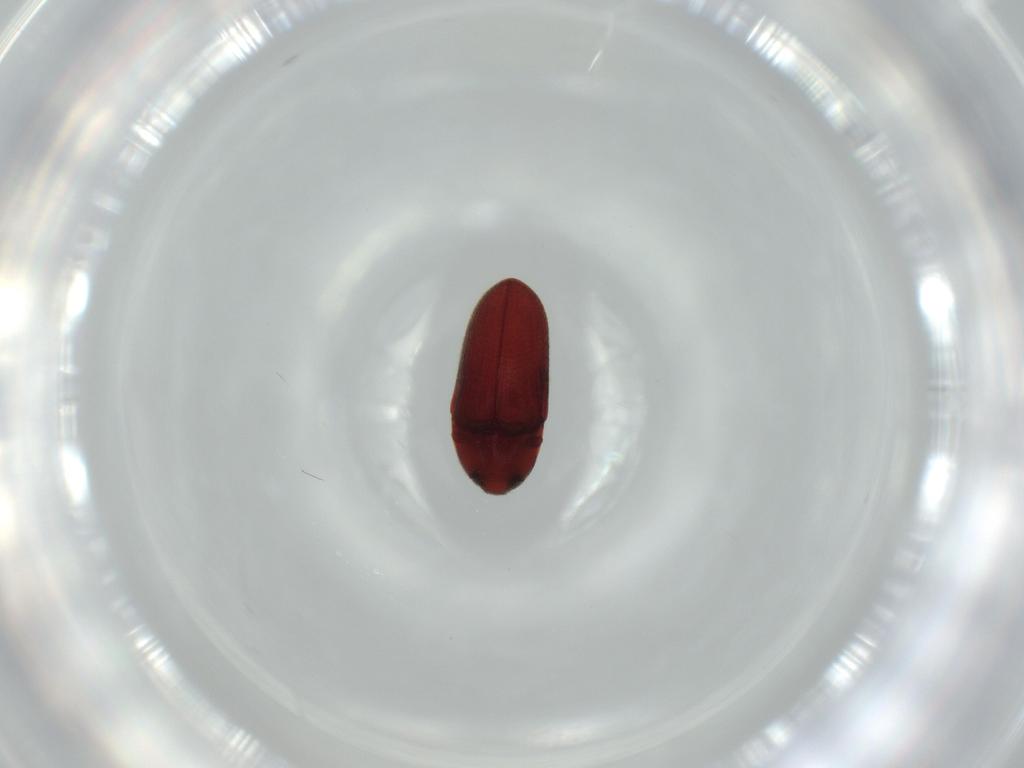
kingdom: Animalia
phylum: Arthropoda
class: Insecta
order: Coleoptera
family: Throscidae
